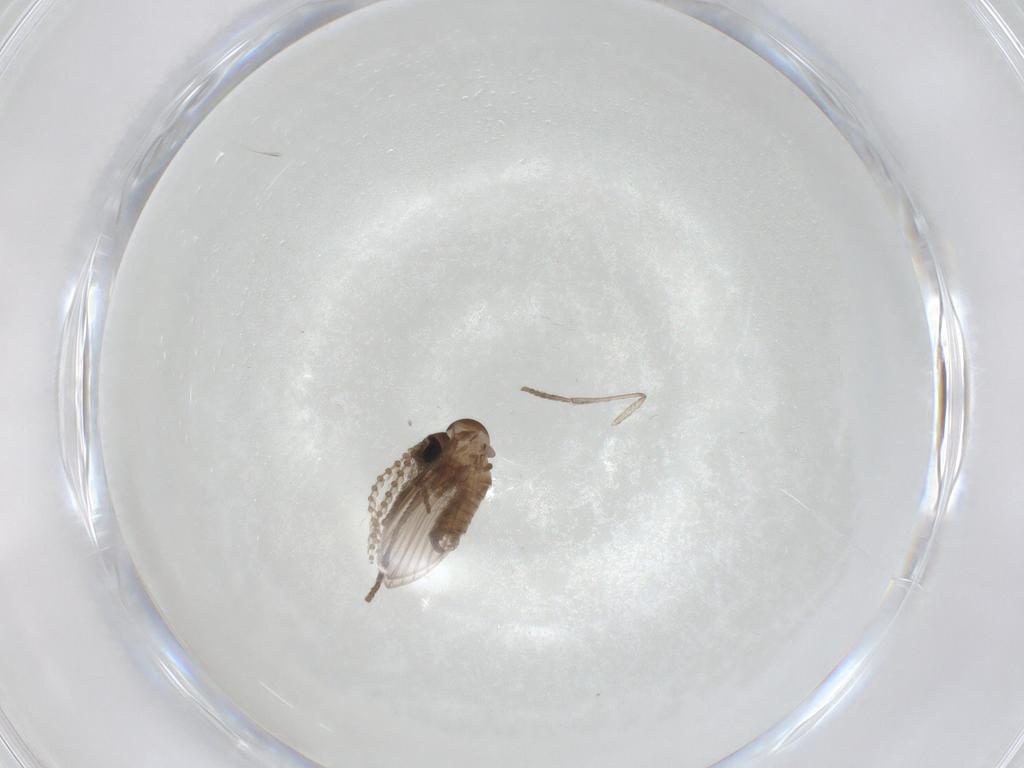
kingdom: Animalia
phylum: Arthropoda
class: Insecta
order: Diptera
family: Psychodidae
